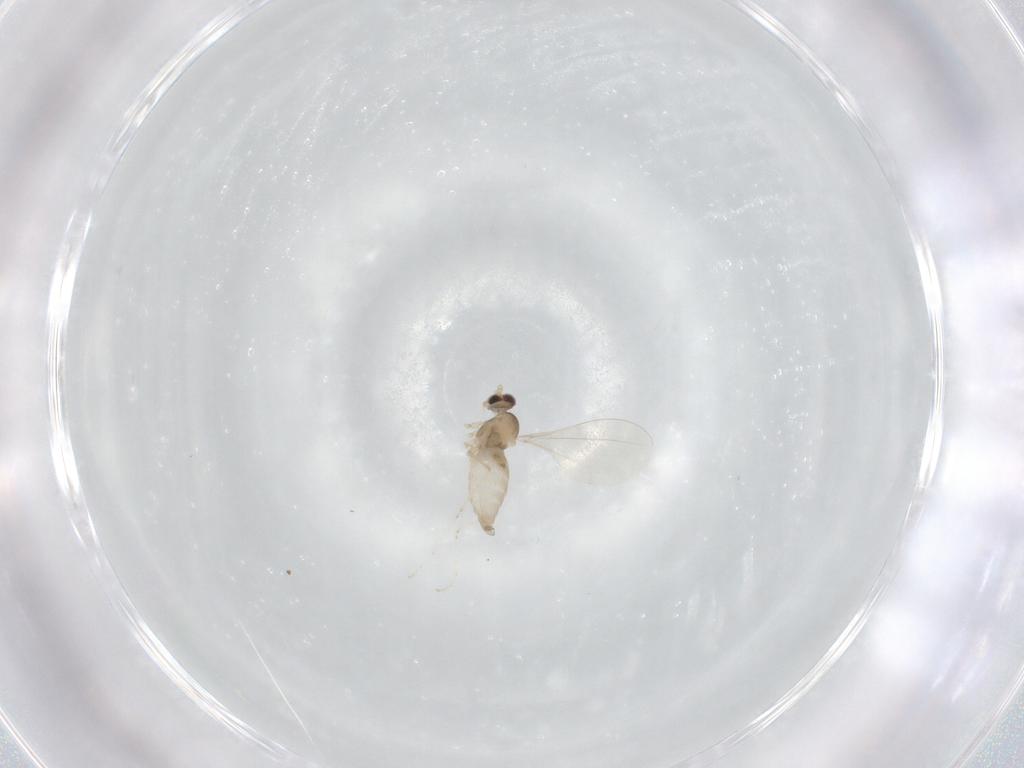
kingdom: Animalia
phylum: Arthropoda
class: Insecta
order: Diptera
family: Cecidomyiidae
